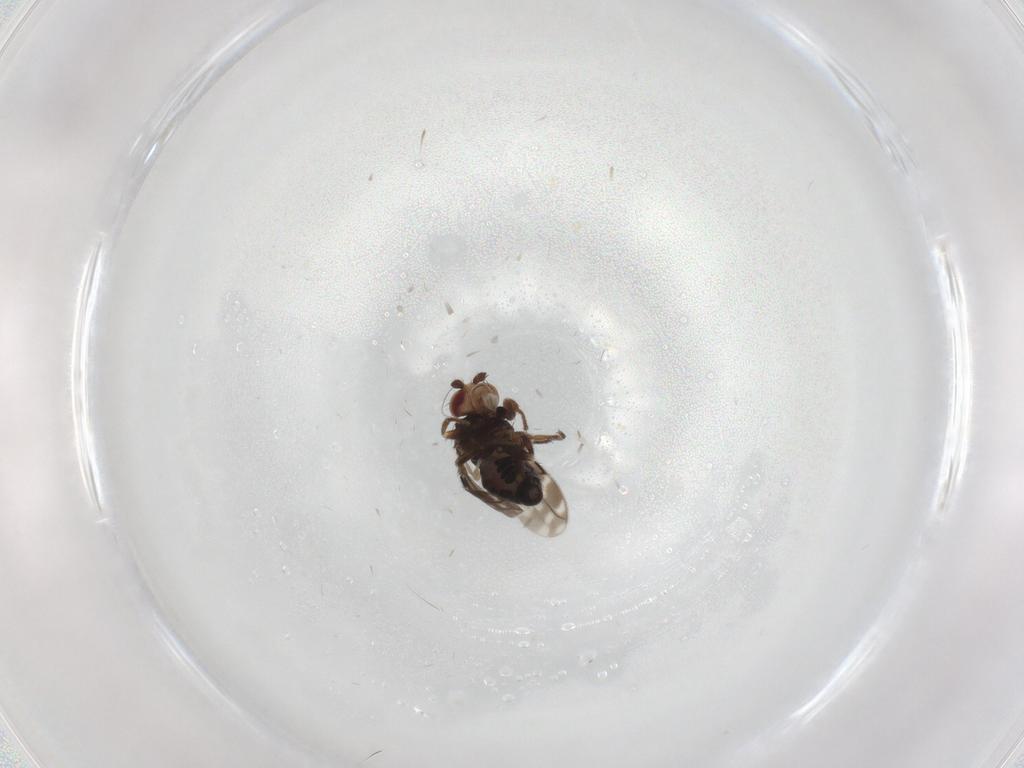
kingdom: Animalia
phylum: Arthropoda
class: Insecta
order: Diptera
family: Sphaeroceridae
